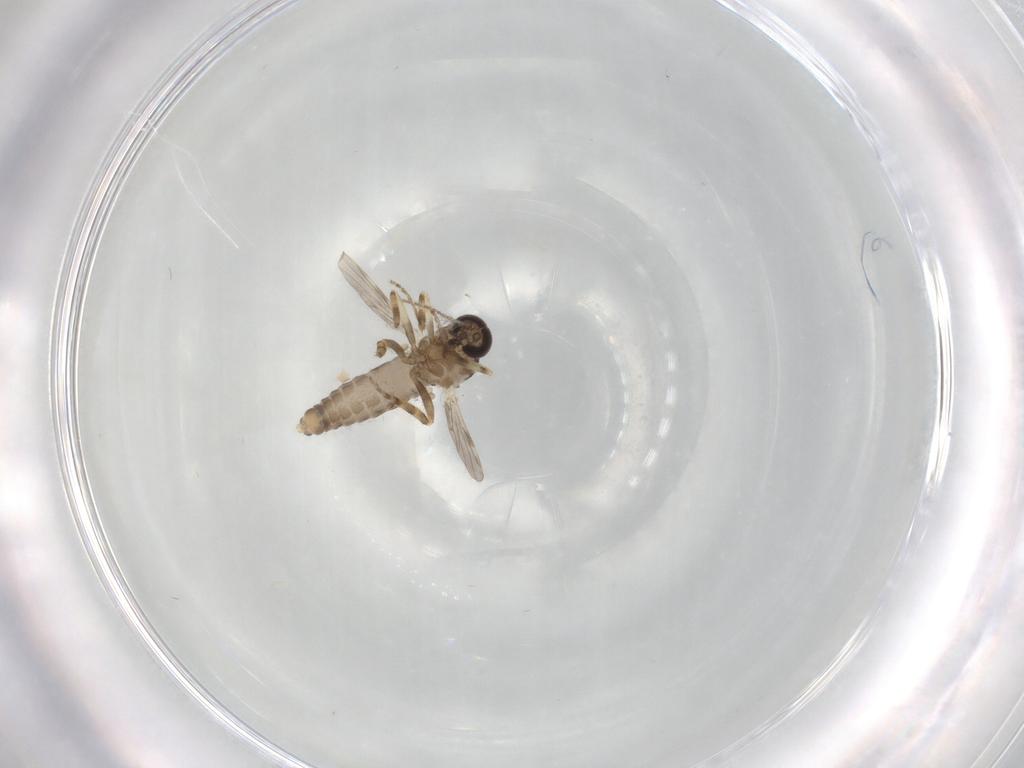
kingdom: Animalia
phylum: Arthropoda
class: Insecta
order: Diptera
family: Ceratopogonidae
